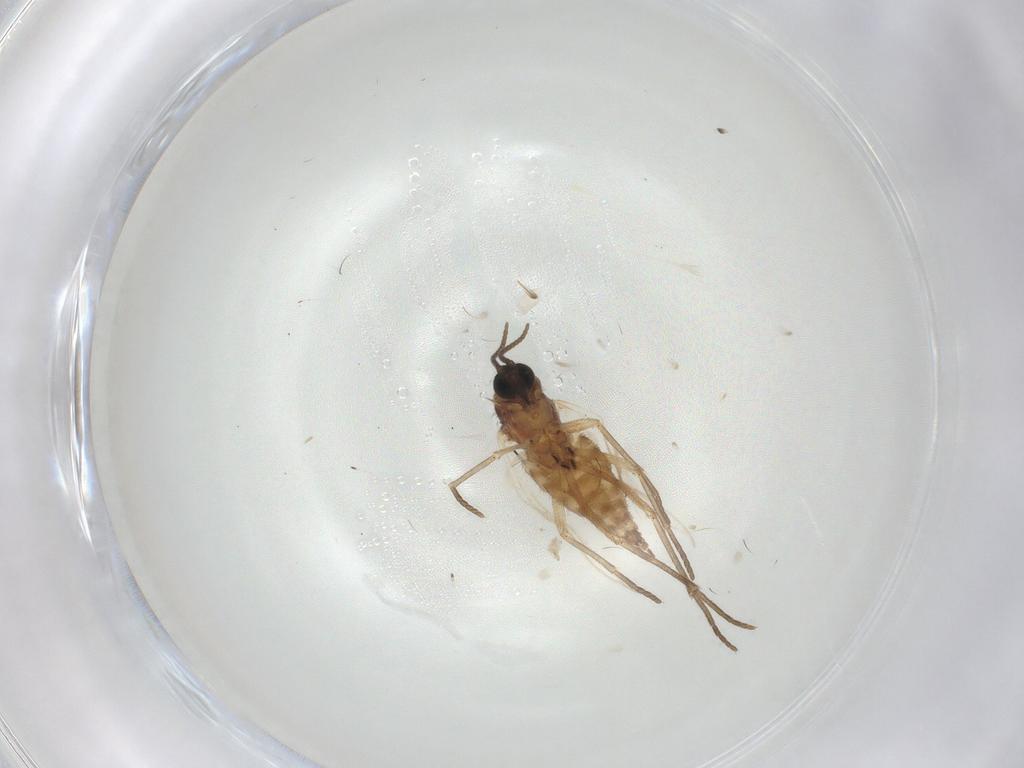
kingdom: Animalia
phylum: Arthropoda
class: Insecta
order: Diptera
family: Sciaridae
